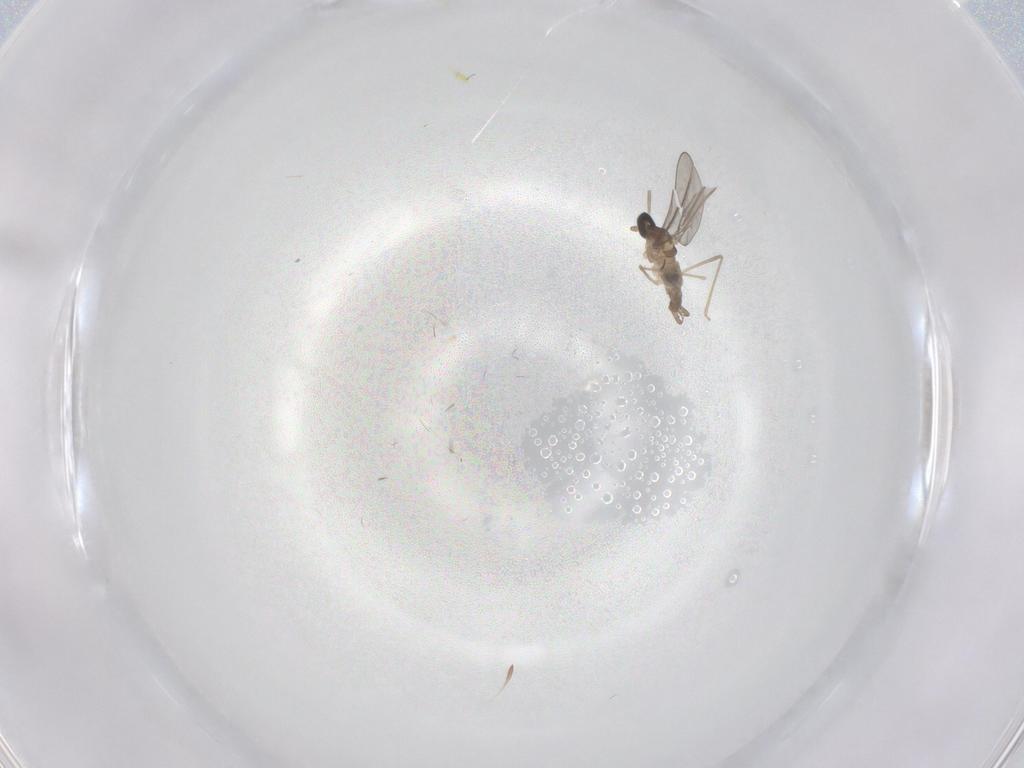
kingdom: Animalia
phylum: Arthropoda
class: Insecta
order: Diptera
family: Cecidomyiidae
